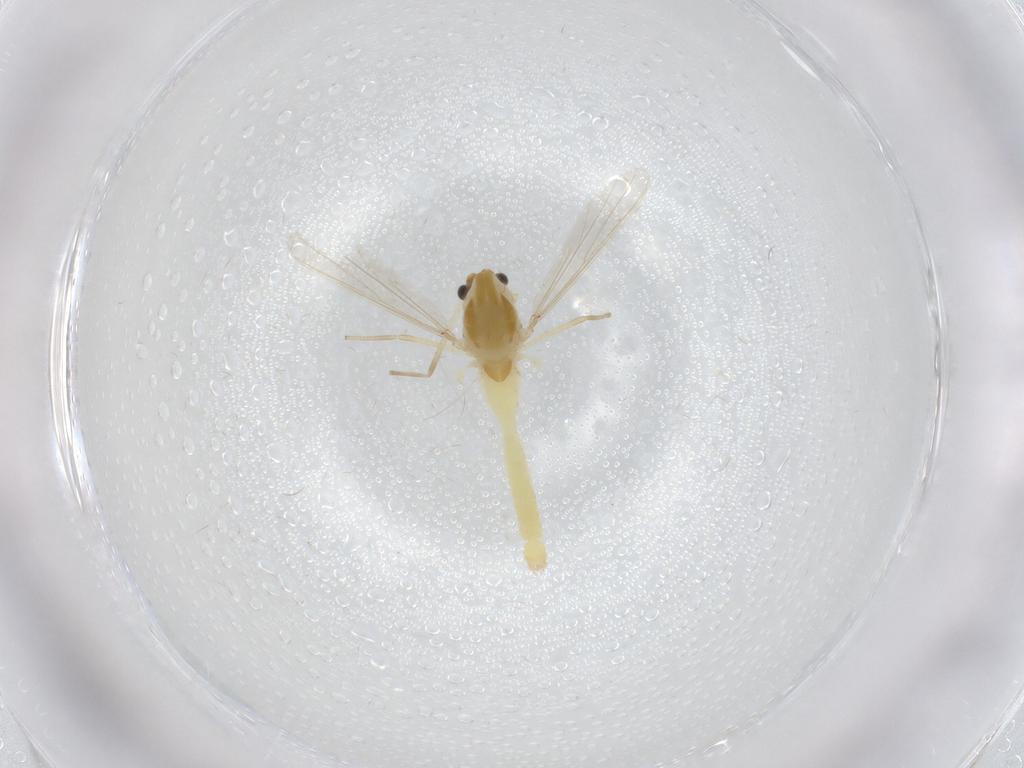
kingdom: Animalia
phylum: Arthropoda
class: Insecta
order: Diptera
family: Chironomidae
